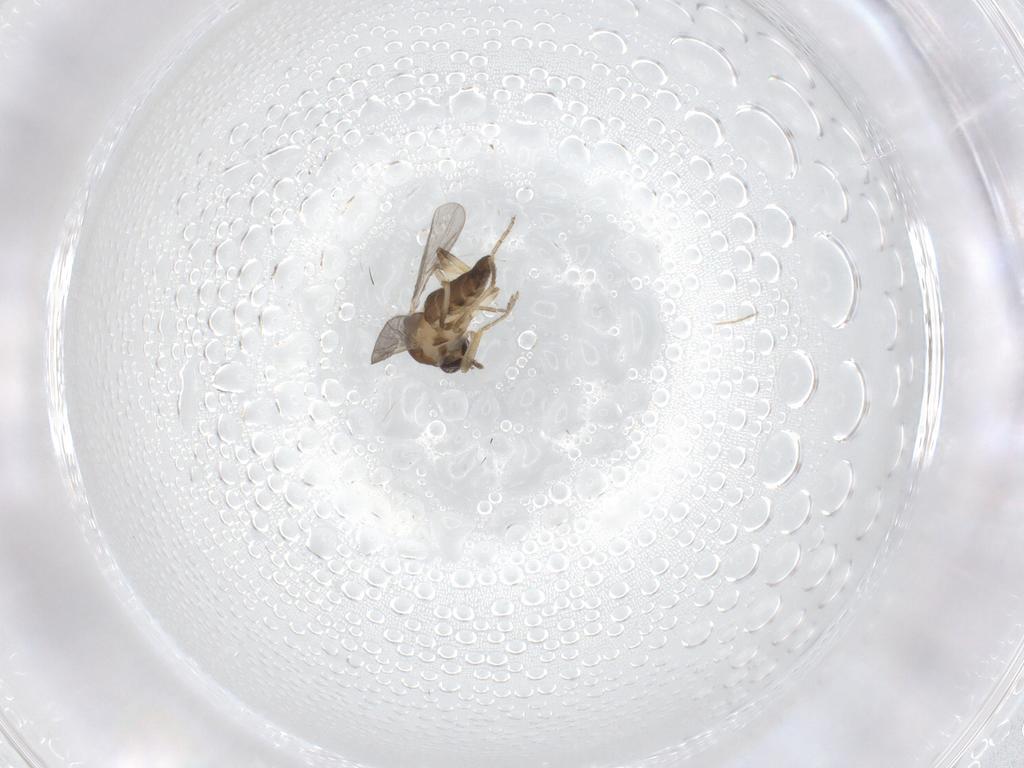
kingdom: Animalia
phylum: Arthropoda
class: Insecta
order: Diptera
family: Ceratopogonidae
